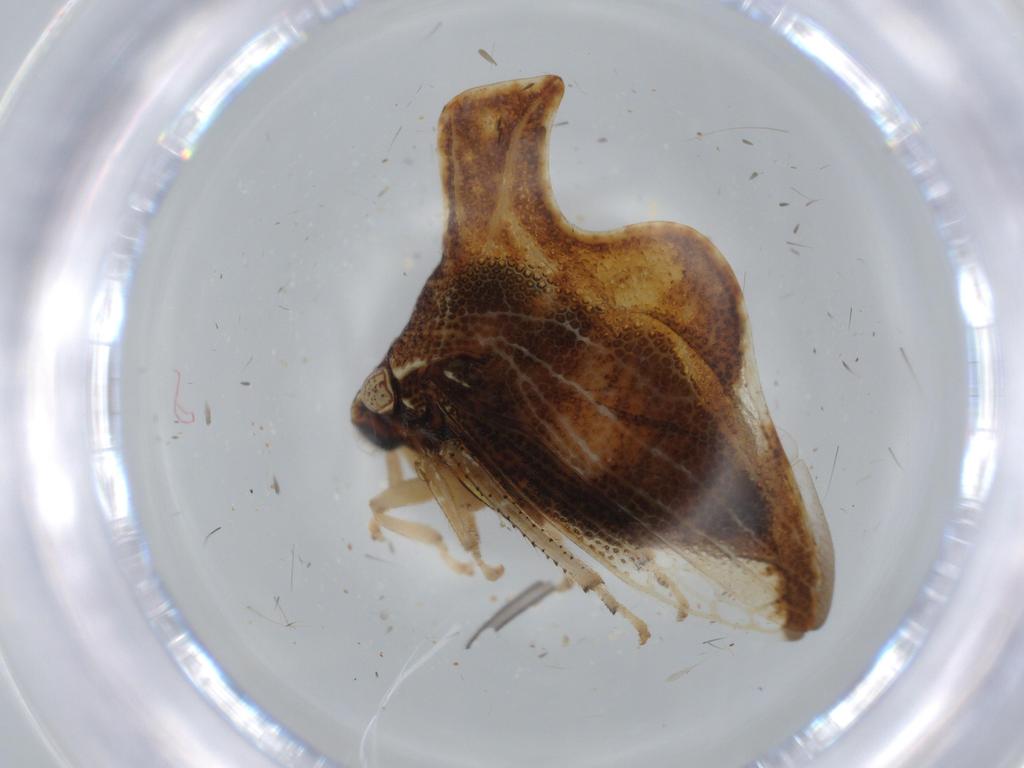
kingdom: Animalia
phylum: Arthropoda
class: Insecta
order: Hemiptera
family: Membracidae
